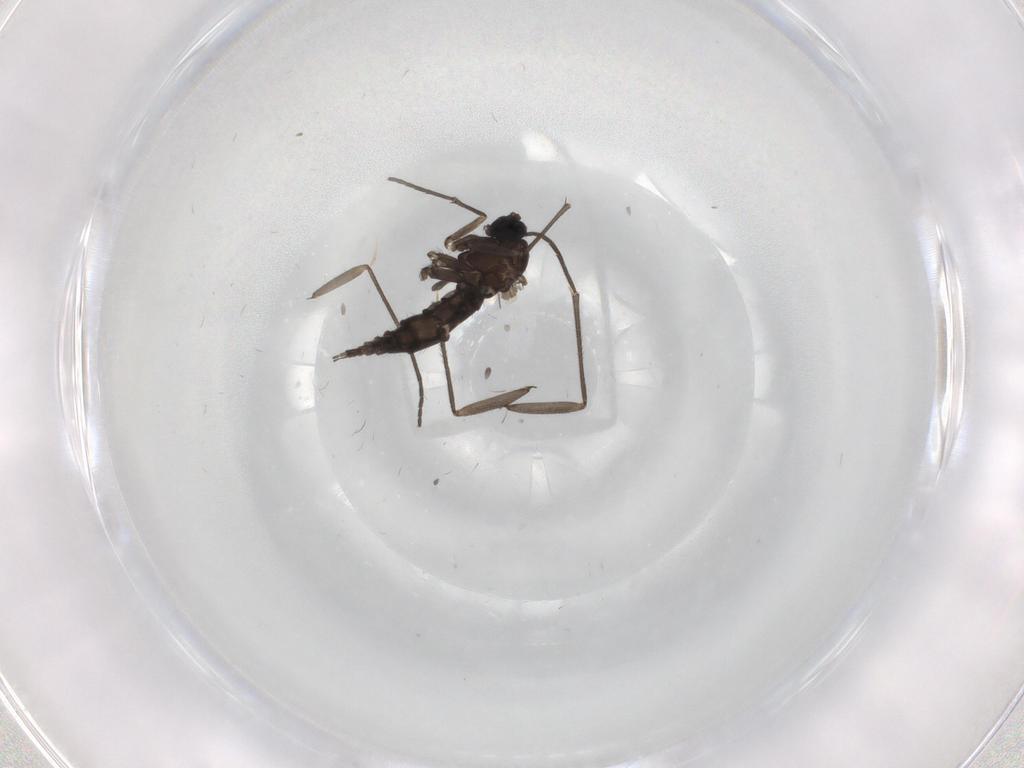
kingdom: Animalia
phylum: Arthropoda
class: Insecta
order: Diptera
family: Sciaridae
